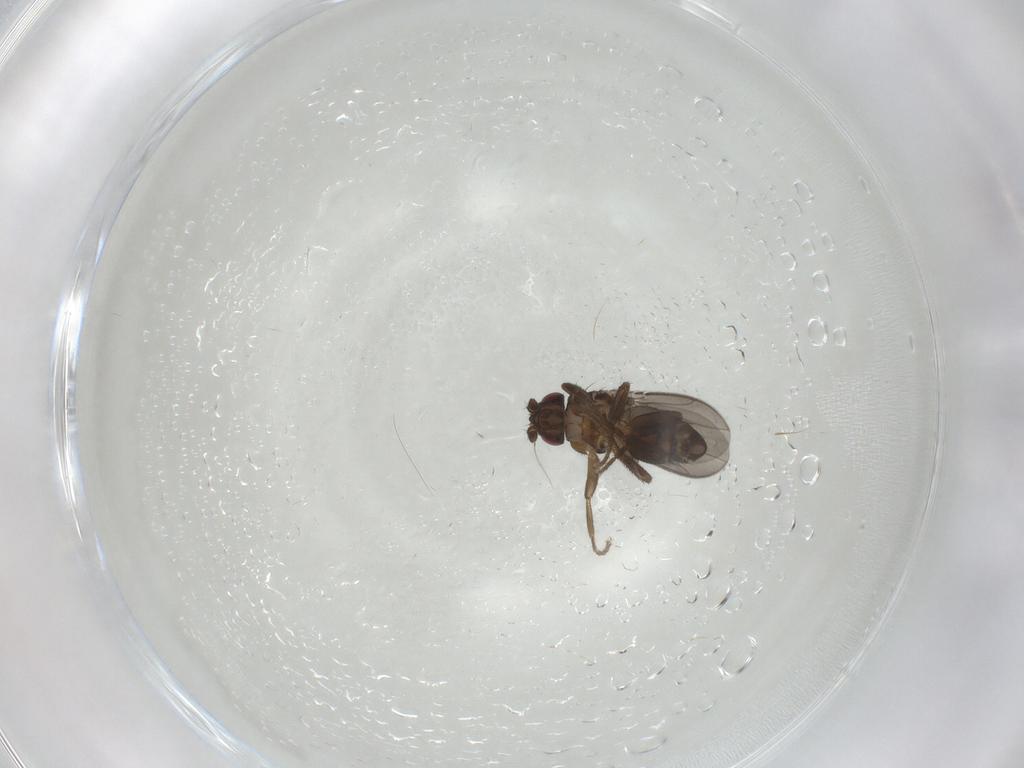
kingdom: Animalia
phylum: Arthropoda
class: Insecta
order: Diptera
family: Sphaeroceridae
